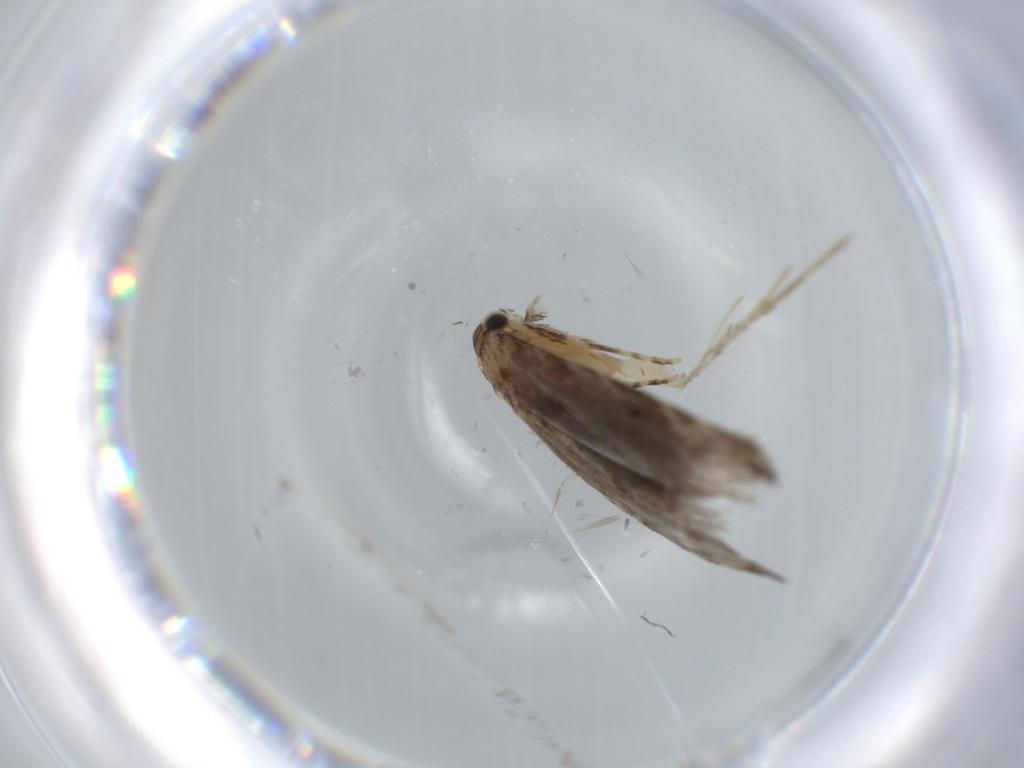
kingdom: Animalia
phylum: Arthropoda
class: Insecta
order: Lepidoptera
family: Tineidae
